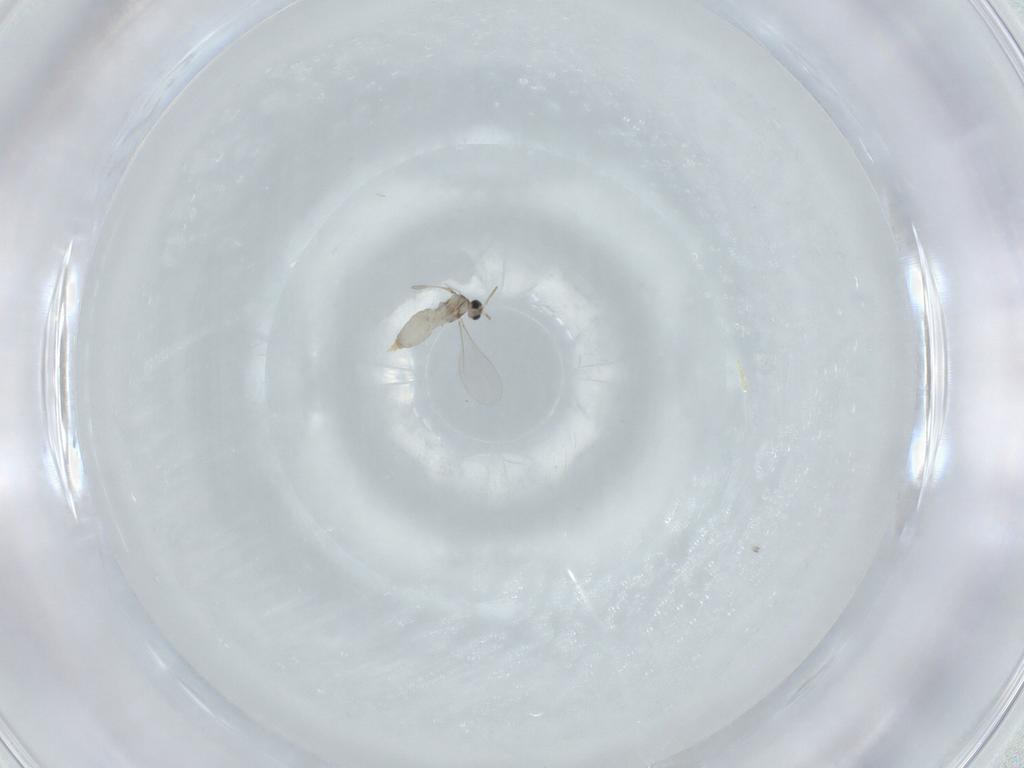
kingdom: Animalia
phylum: Arthropoda
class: Insecta
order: Diptera
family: Cecidomyiidae
